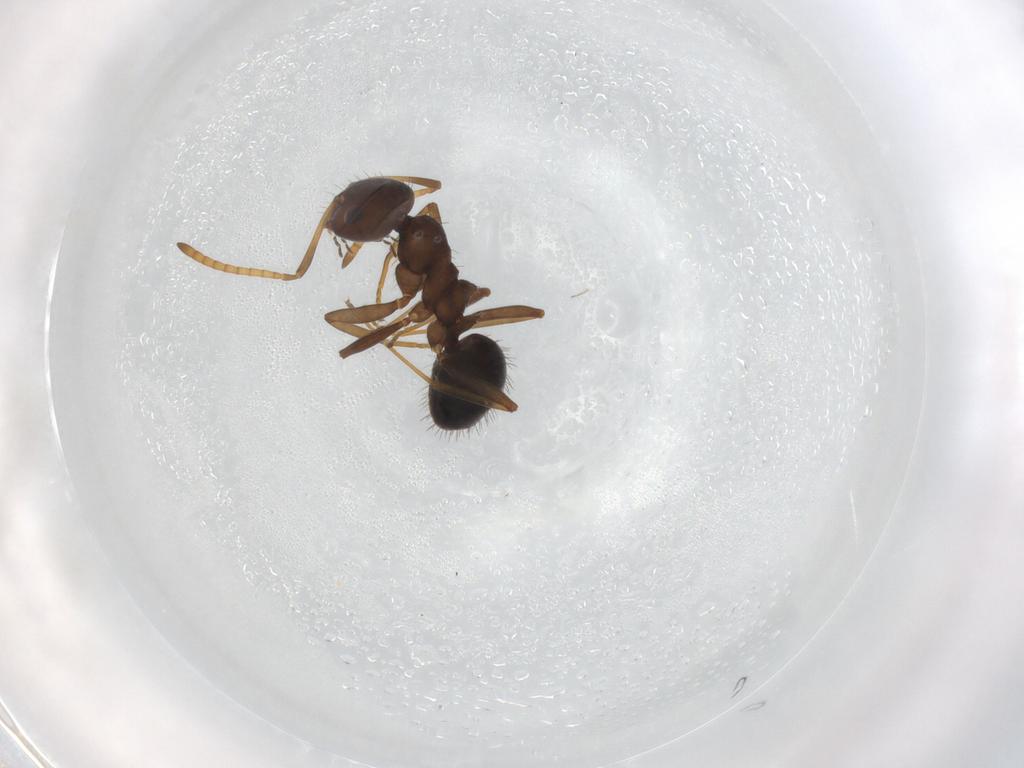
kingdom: Animalia
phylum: Arthropoda
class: Insecta
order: Hymenoptera
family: Formicidae
